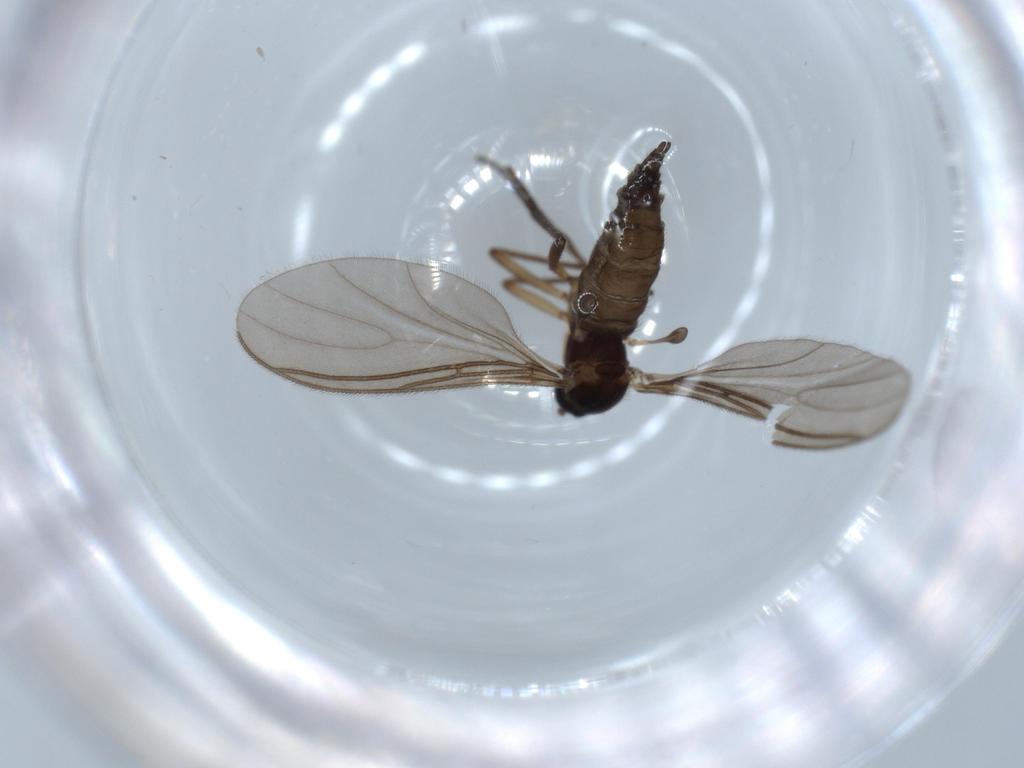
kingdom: Animalia
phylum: Arthropoda
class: Insecta
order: Diptera
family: Sciaridae
